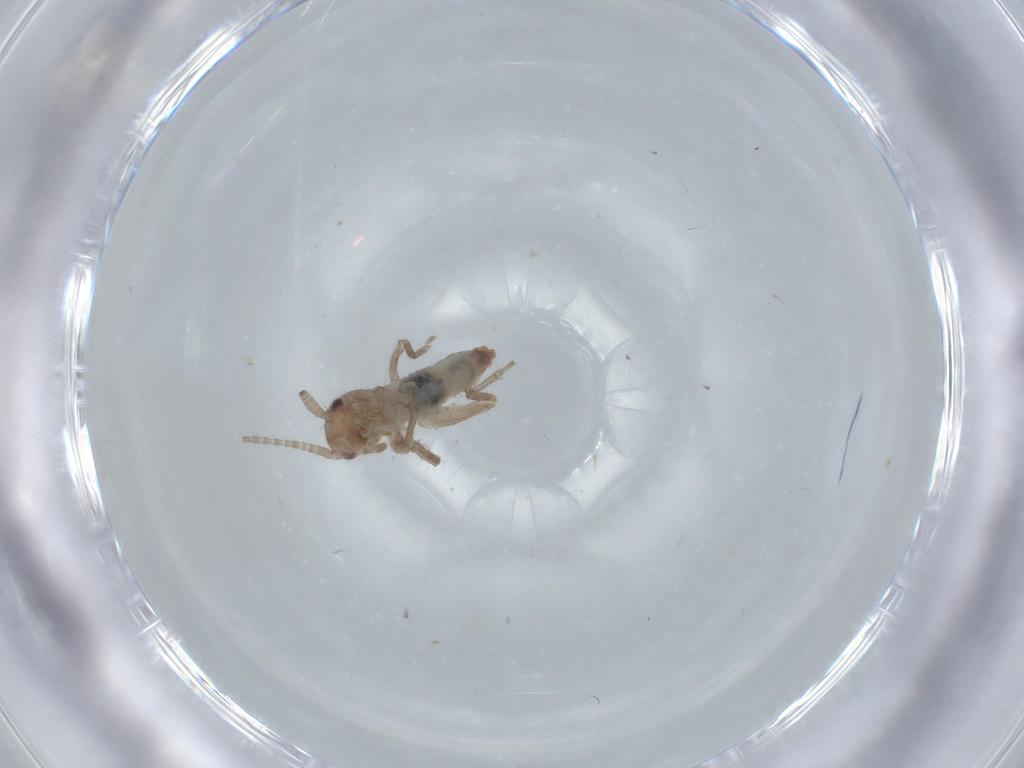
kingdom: Animalia
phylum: Arthropoda
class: Insecta
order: Orthoptera
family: Mogoplistidae
